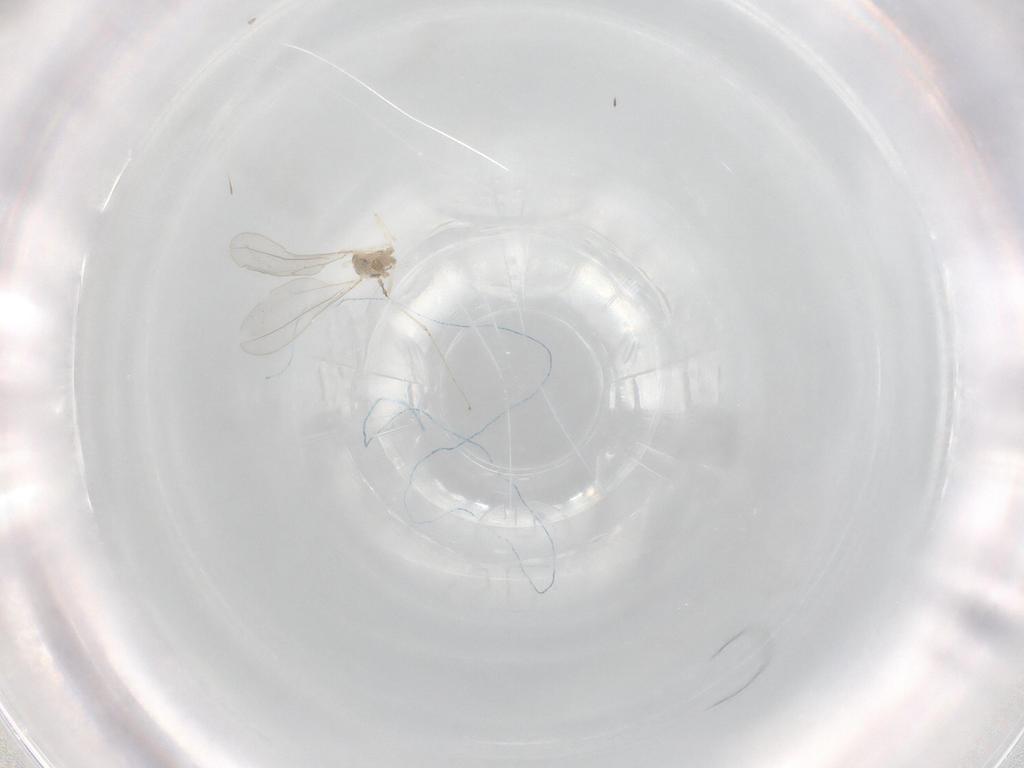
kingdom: Animalia
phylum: Arthropoda
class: Insecta
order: Diptera
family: Cecidomyiidae
